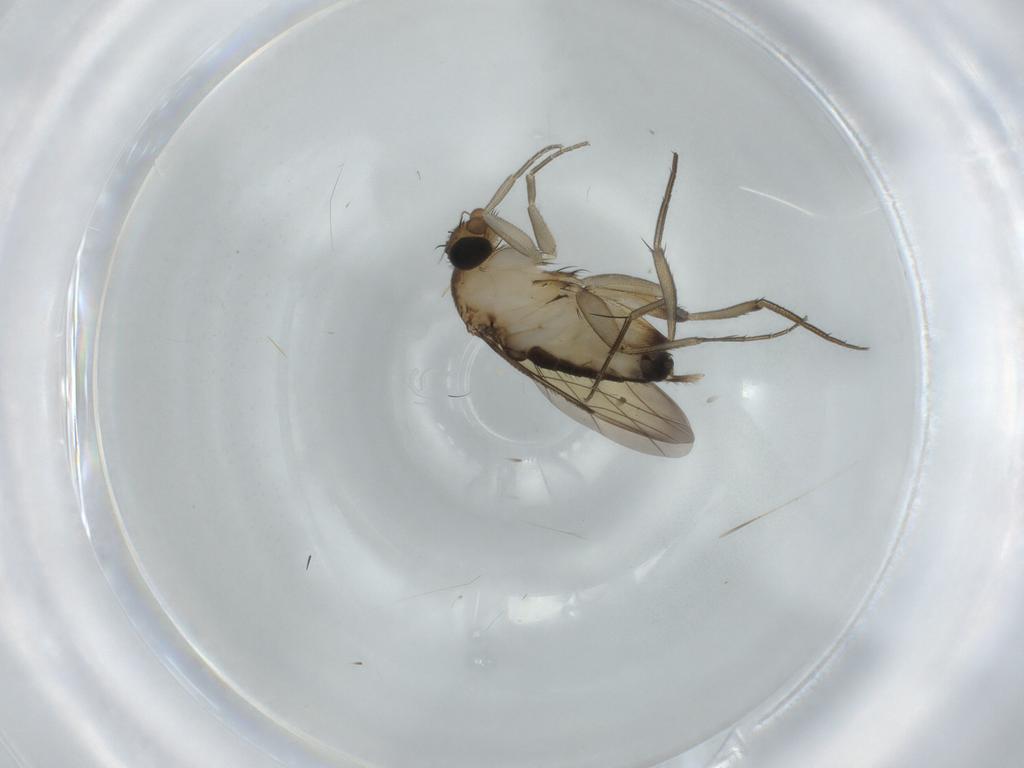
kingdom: Animalia
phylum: Arthropoda
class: Insecta
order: Diptera
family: Phoridae
